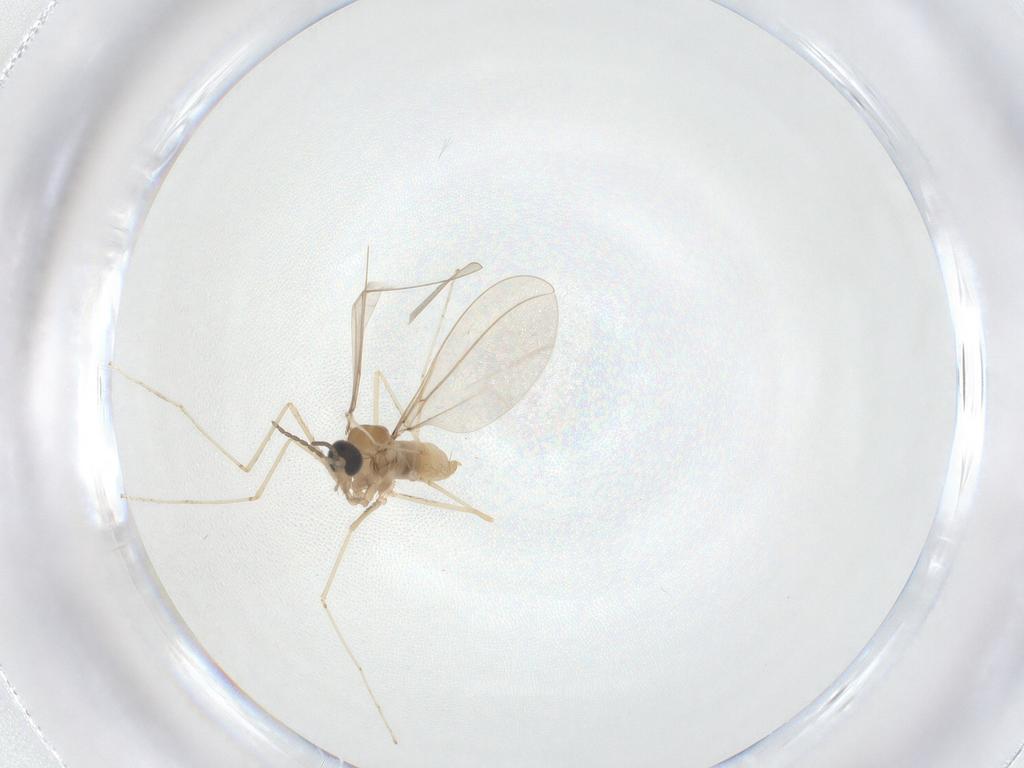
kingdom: Animalia
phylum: Arthropoda
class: Insecta
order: Diptera
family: Cecidomyiidae
